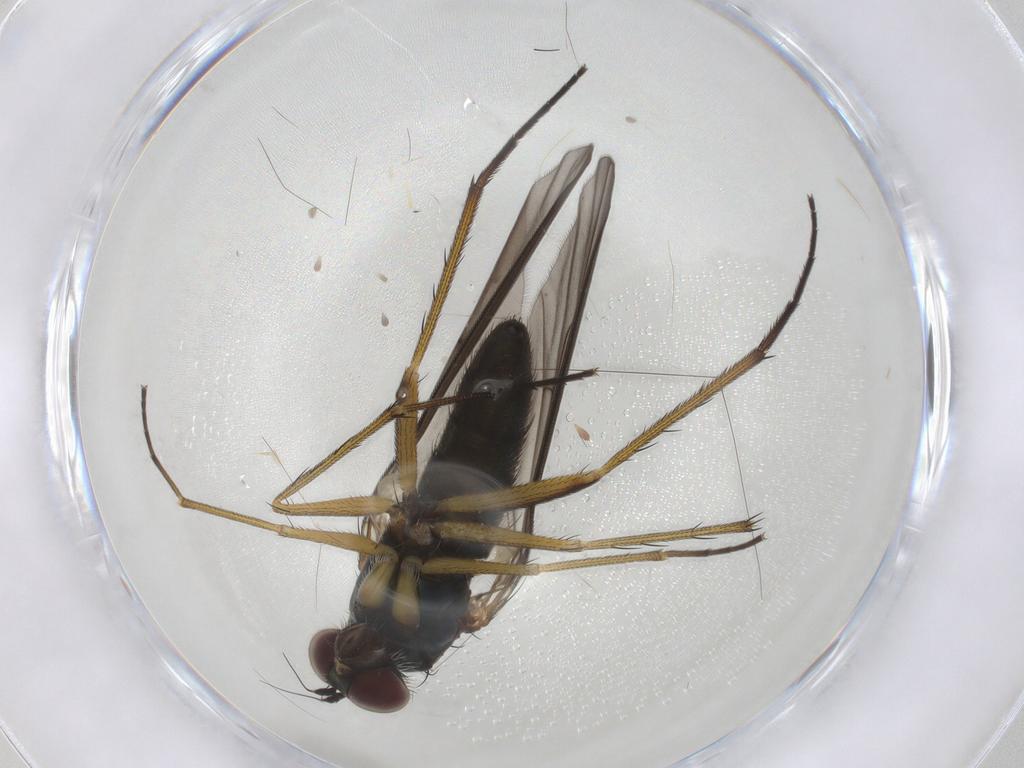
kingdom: Animalia
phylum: Arthropoda
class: Insecta
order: Diptera
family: Dolichopodidae
